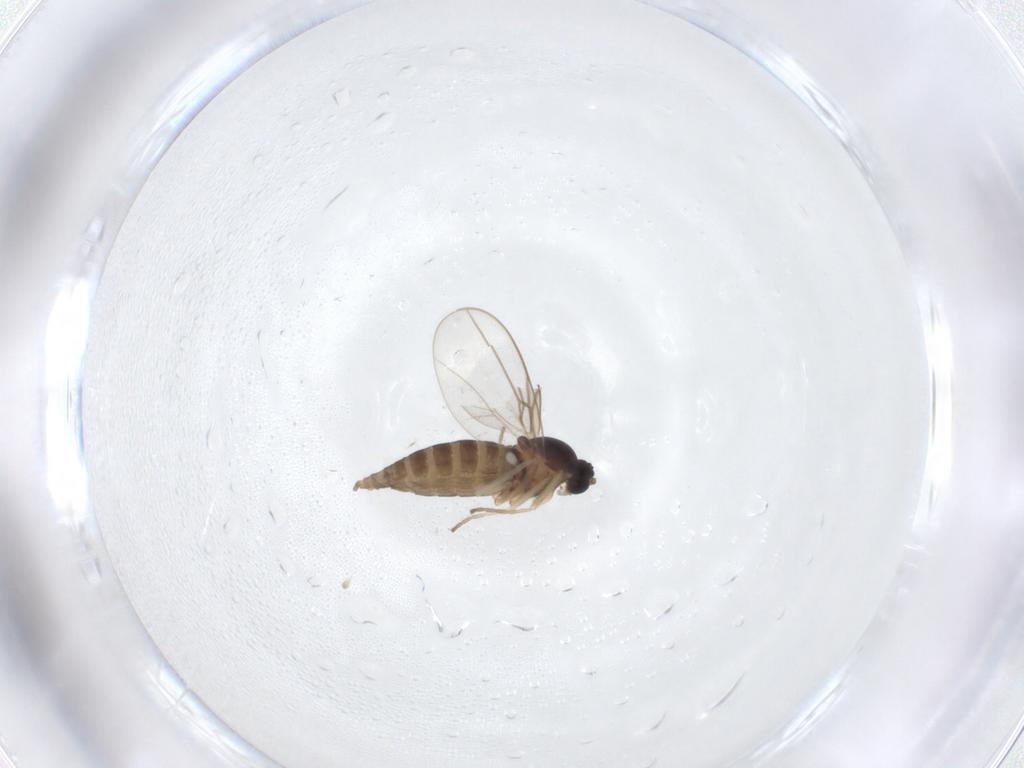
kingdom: Animalia
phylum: Arthropoda
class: Insecta
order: Diptera
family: Cecidomyiidae
